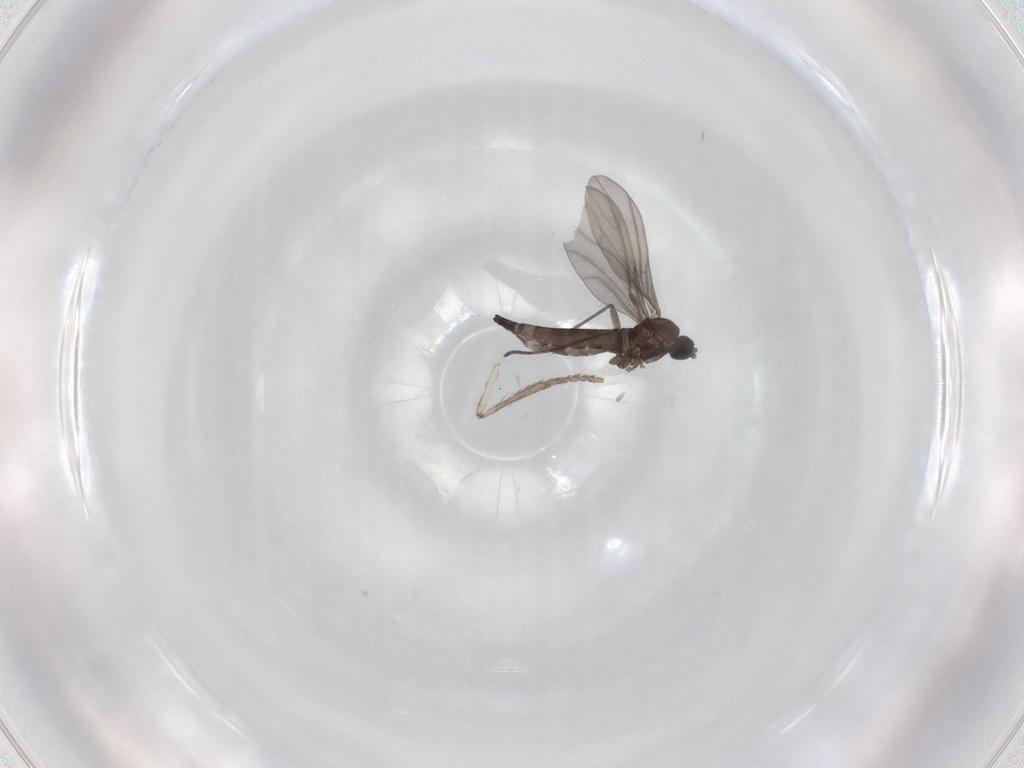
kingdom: Animalia
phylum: Arthropoda
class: Insecta
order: Diptera
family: Sciaridae
